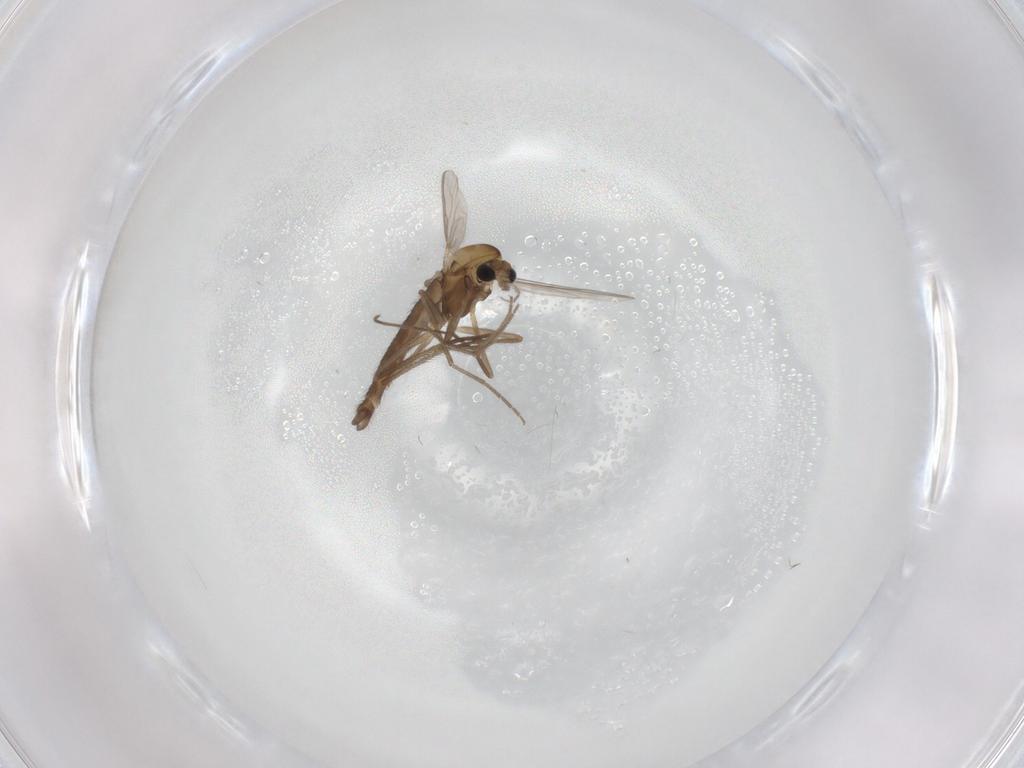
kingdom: Animalia
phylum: Arthropoda
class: Insecta
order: Diptera
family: Chironomidae
